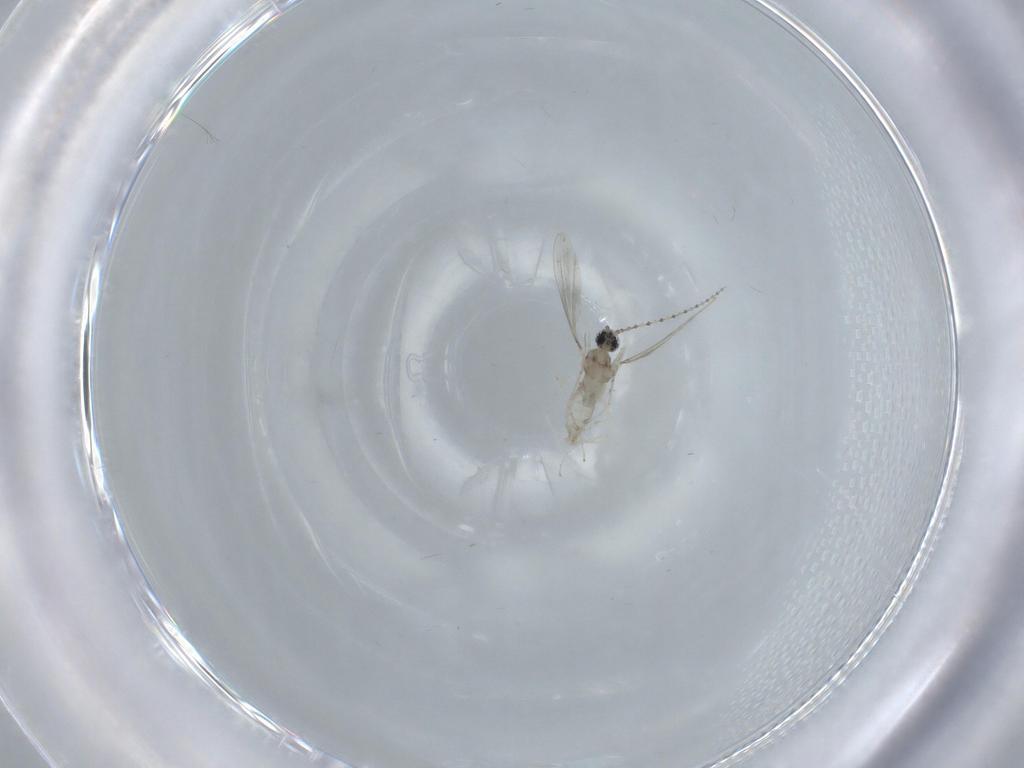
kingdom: Animalia
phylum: Arthropoda
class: Insecta
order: Diptera
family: Cecidomyiidae
